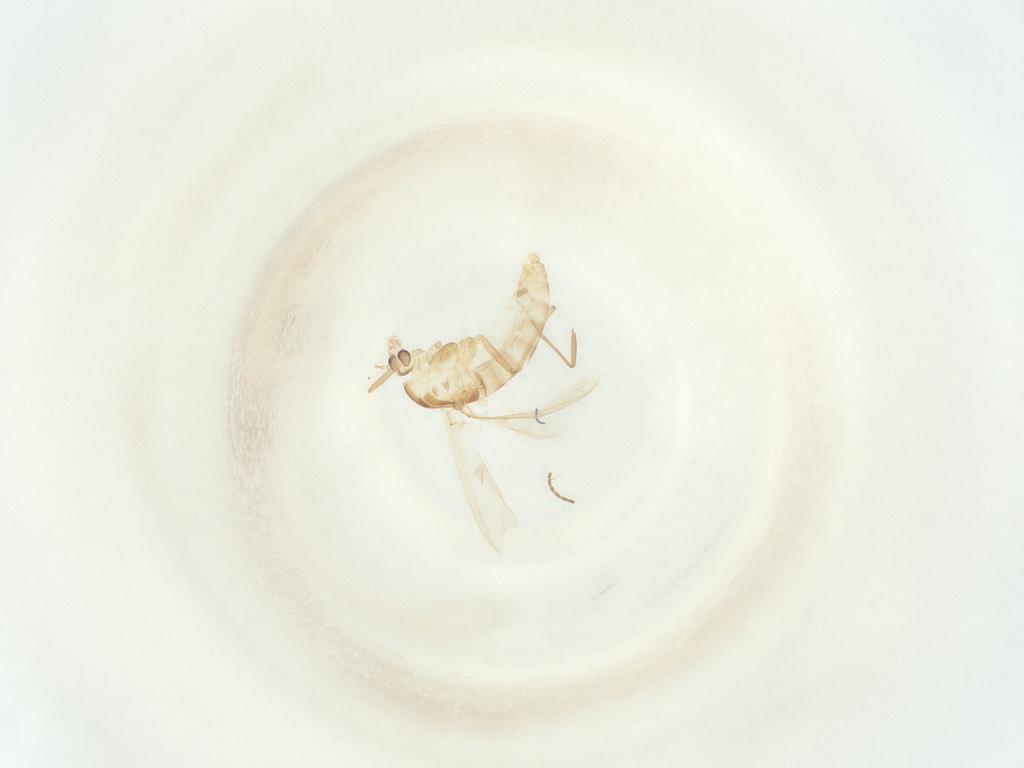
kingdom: Animalia
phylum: Arthropoda
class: Insecta
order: Diptera
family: Chironomidae
